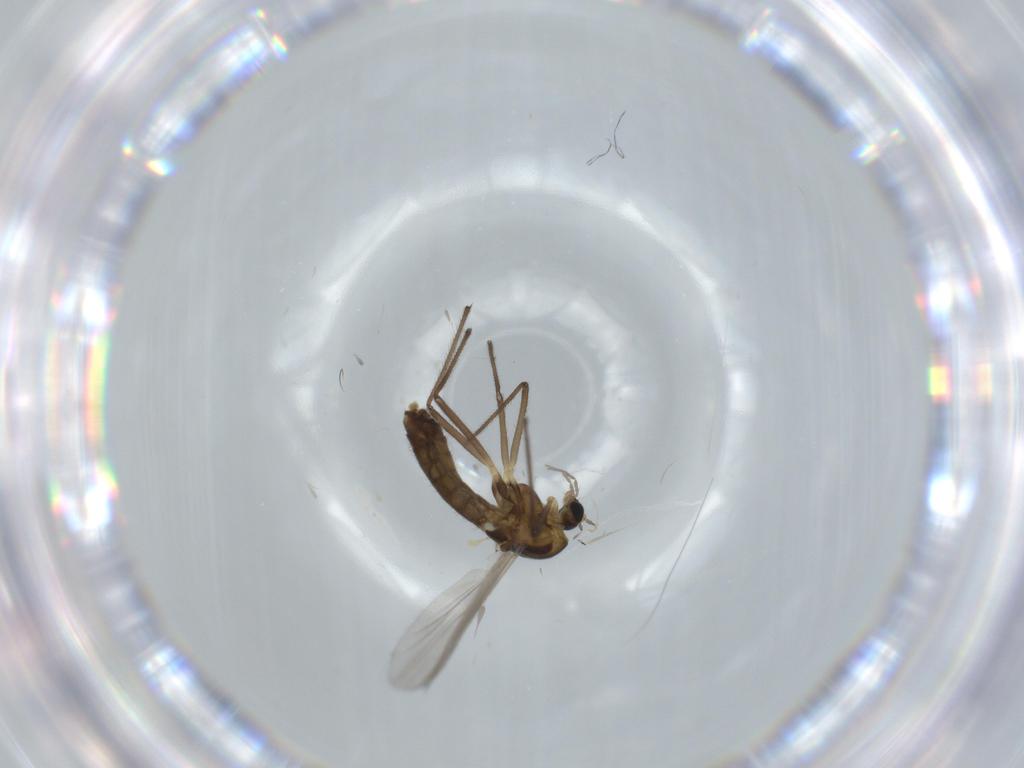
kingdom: Animalia
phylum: Arthropoda
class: Insecta
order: Diptera
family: Chironomidae
